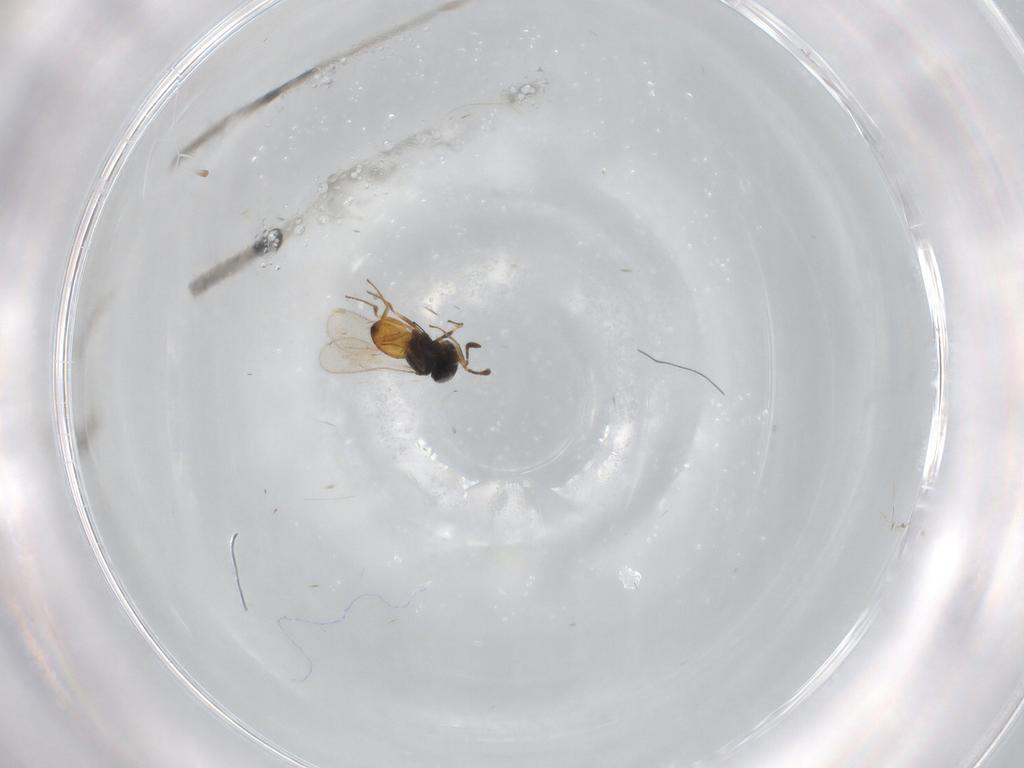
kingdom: Animalia
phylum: Arthropoda
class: Insecta
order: Hymenoptera
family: Scelionidae
